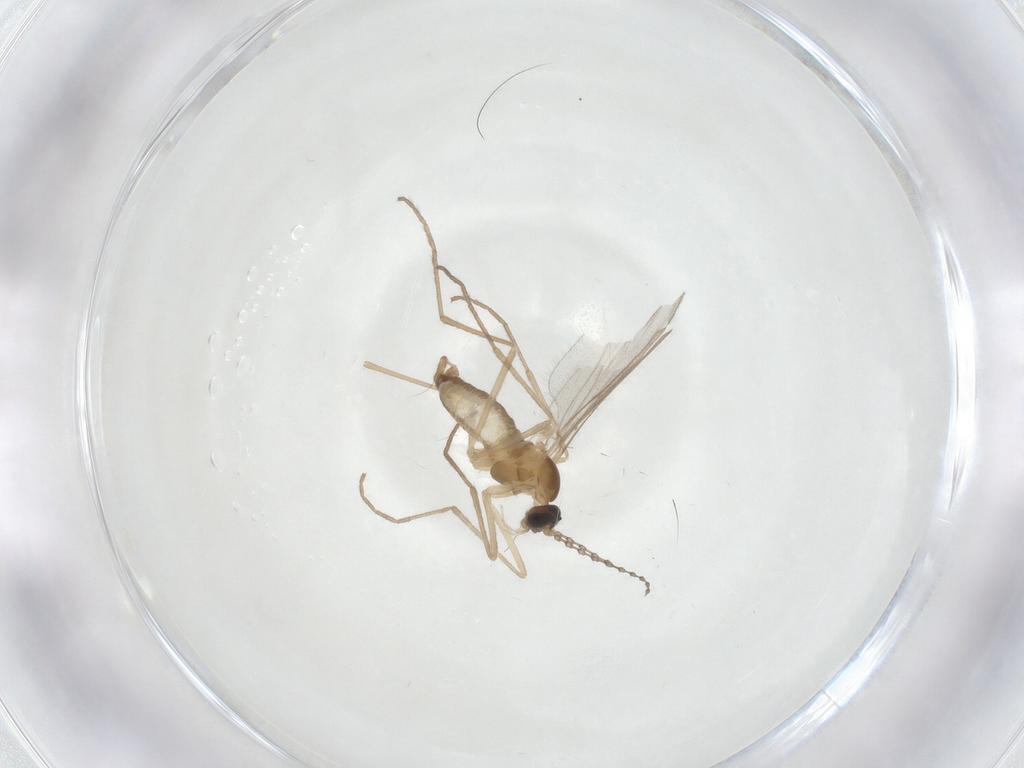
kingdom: Animalia
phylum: Arthropoda
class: Insecta
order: Diptera
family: Cecidomyiidae
